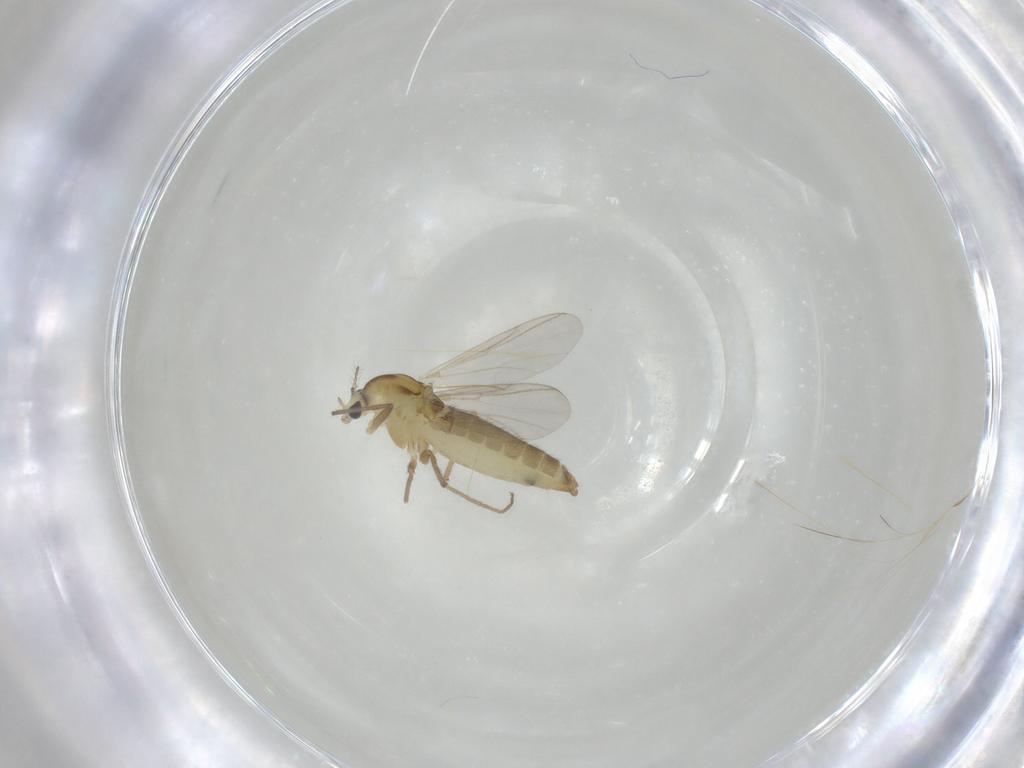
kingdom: Animalia
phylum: Arthropoda
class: Insecta
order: Diptera
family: Chironomidae
